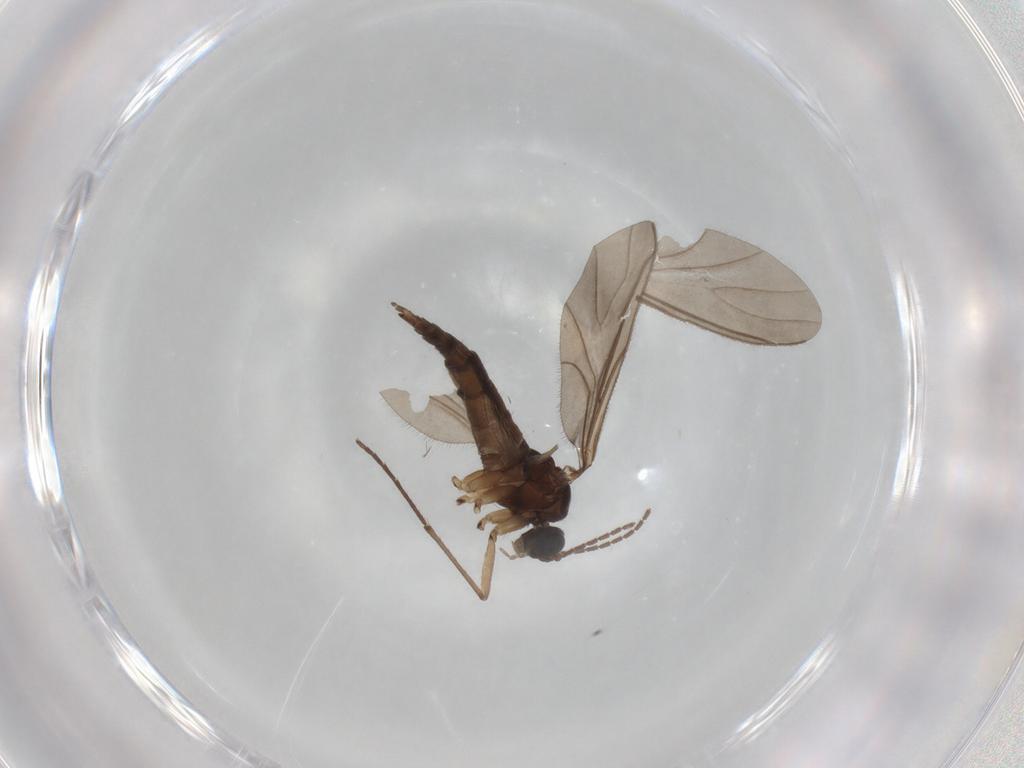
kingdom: Animalia
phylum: Arthropoda
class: Insecta
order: Diptera
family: Sciaridae
